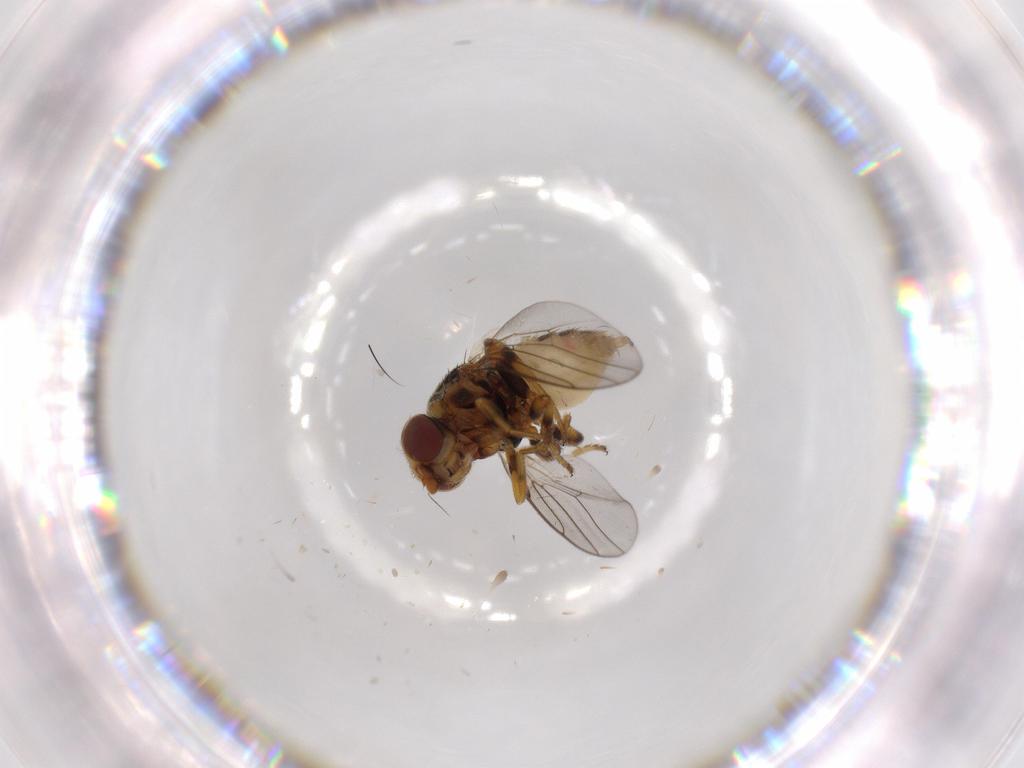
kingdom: Animalia
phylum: Arthropoda
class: Insecta
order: Diptera
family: Chloropidae
